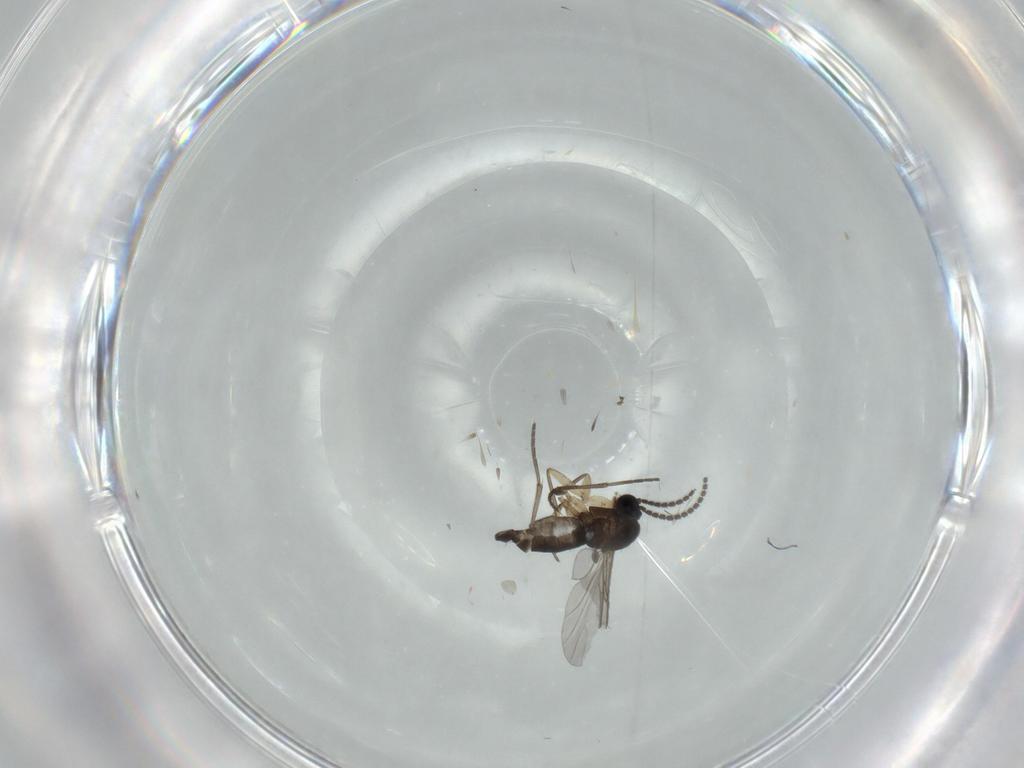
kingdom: Animalia
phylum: Arthropoda
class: Insecta
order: Diptera
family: Sciaridae
